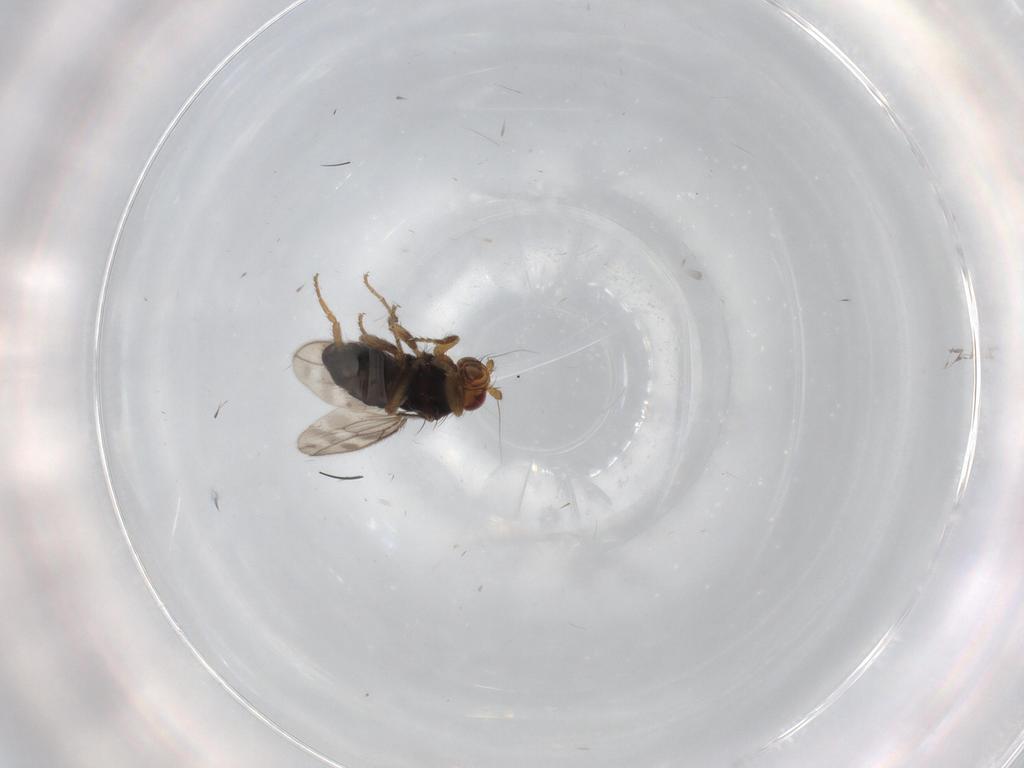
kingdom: Animalia
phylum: Arthropoda
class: Insecta
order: Diptera
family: Sphaeroceridae
